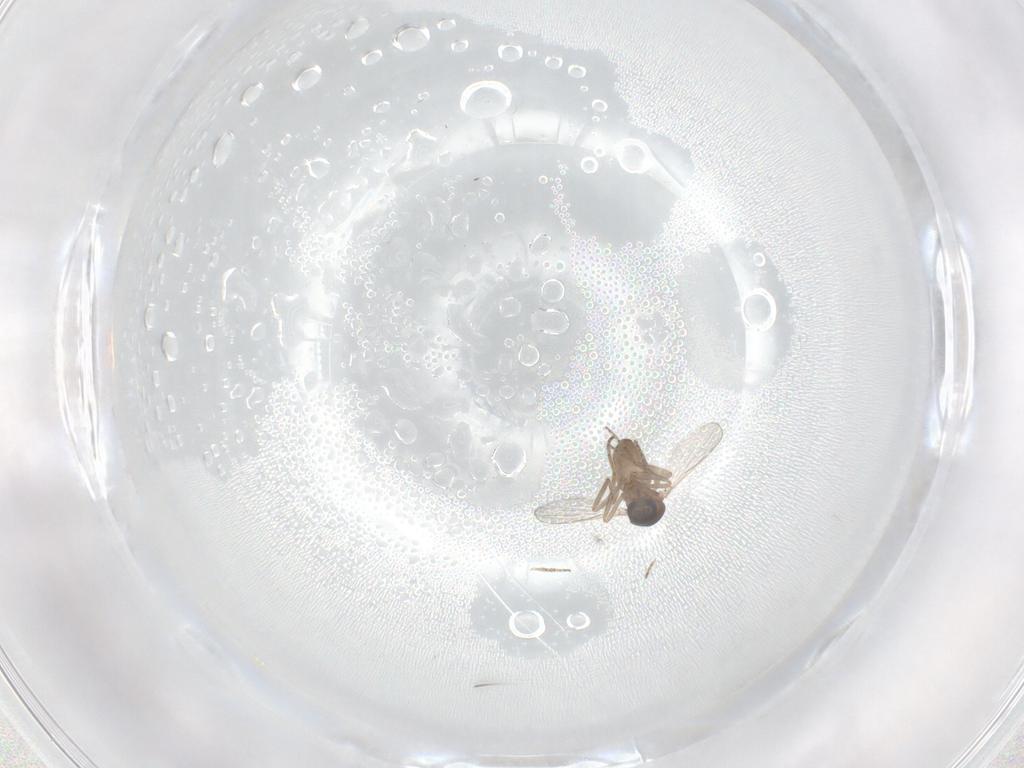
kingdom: Animalia
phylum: Arthropoda
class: Insecta
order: Diptera
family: Ceratopogonidae
